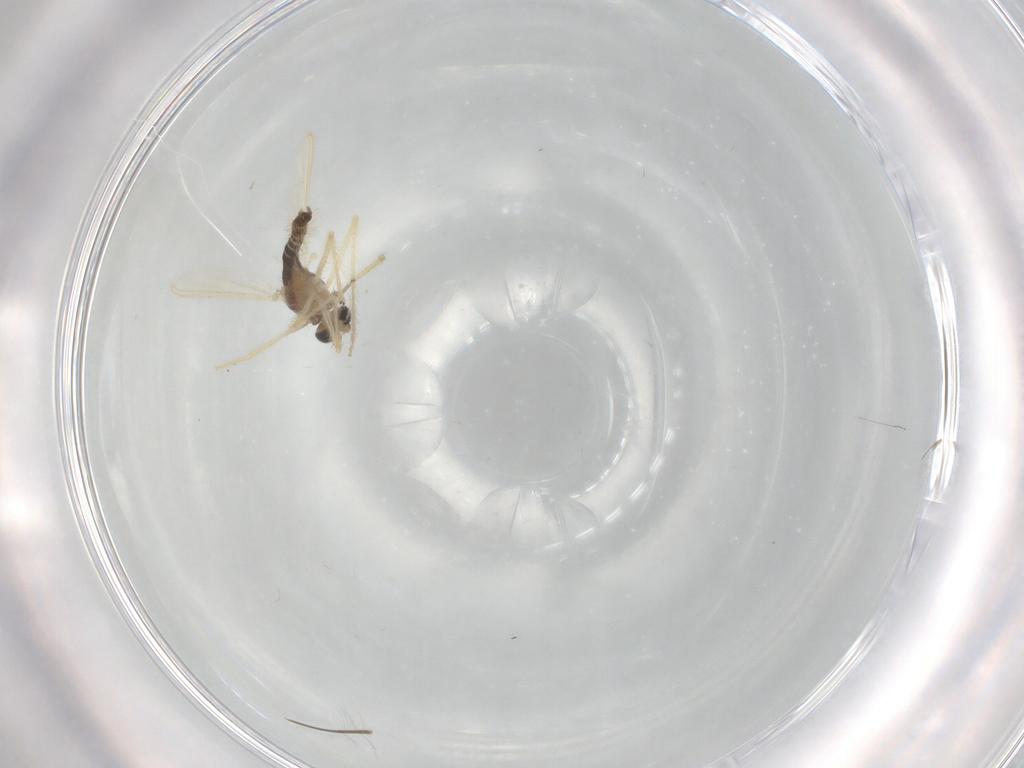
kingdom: Animalia
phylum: Arthropoda
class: Insecta
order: Diptera
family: Chironomidae
